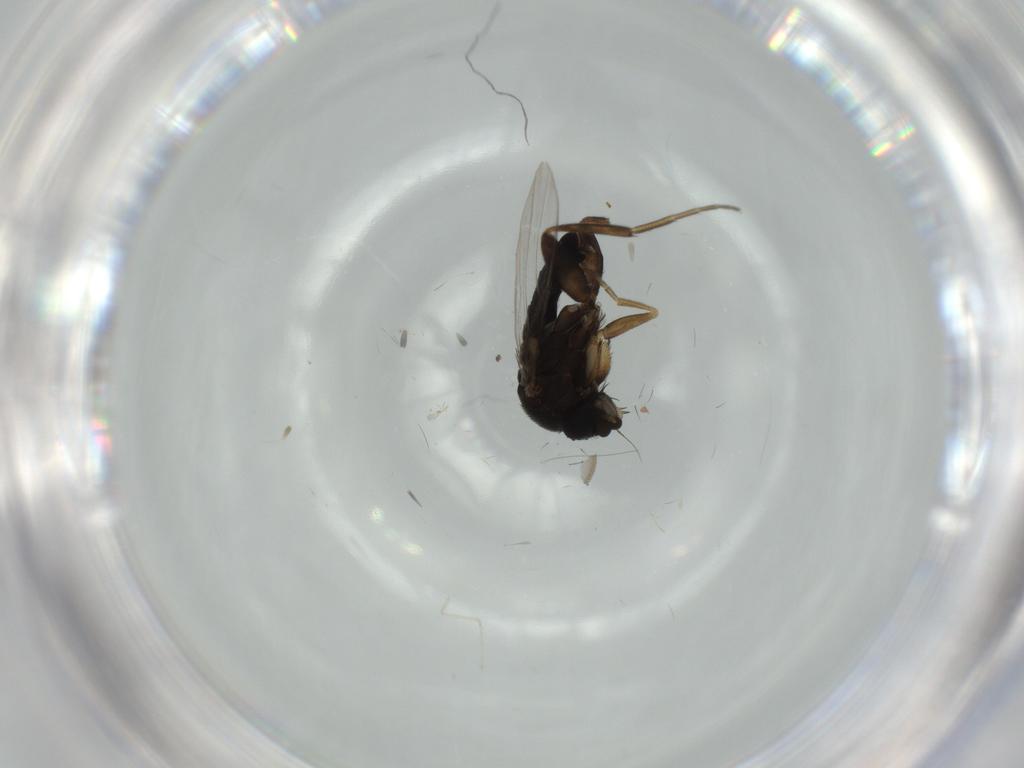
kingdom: Animalia
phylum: Arthropoda
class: Insecta
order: Diptera
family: Phoridae
